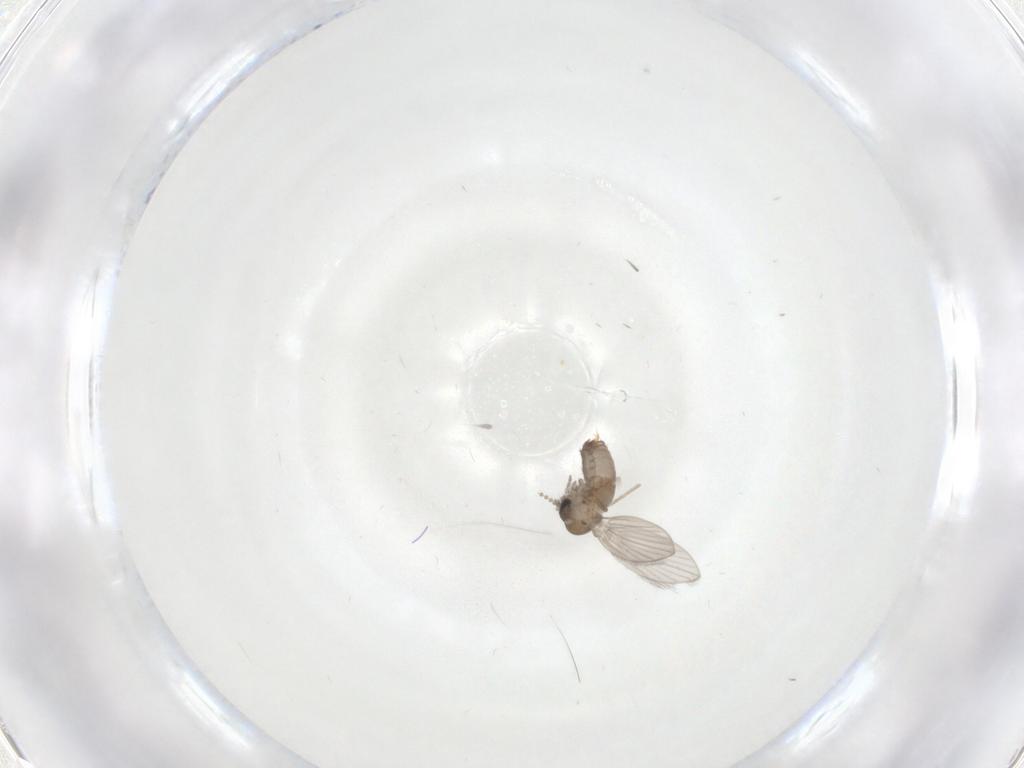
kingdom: Animalia
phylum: Arthropoda
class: Insecta
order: Diptera
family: Psychodidae
